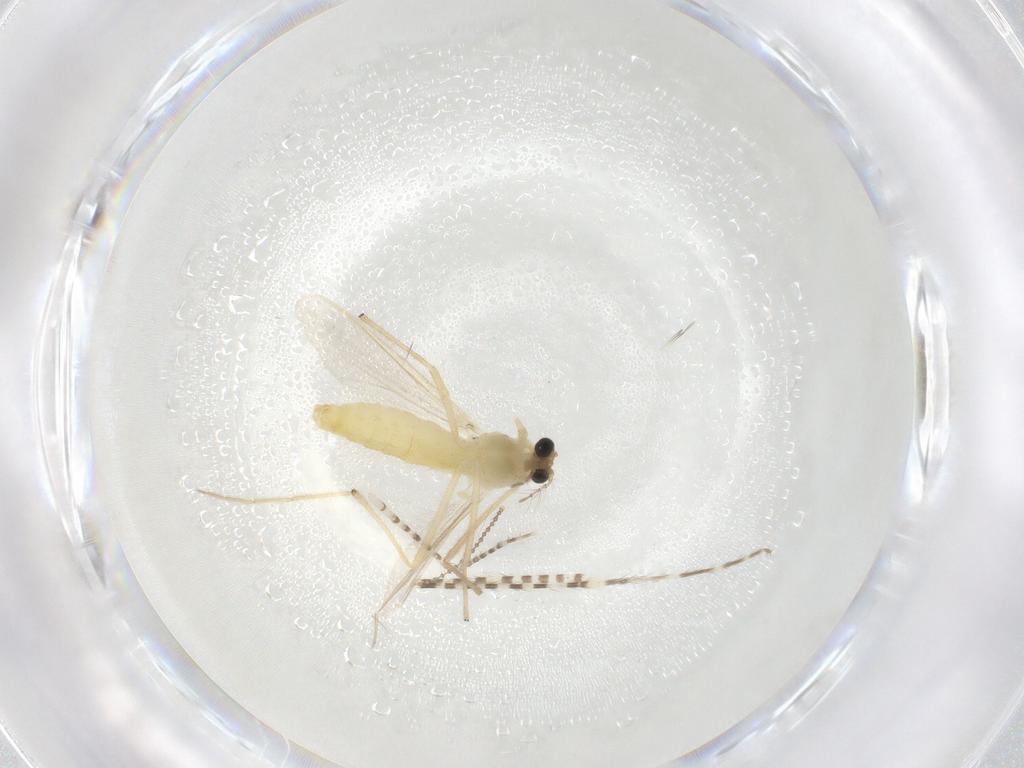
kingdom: Animalia
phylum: Arthropoda
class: Insecta
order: Diptera
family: Chironomidae
